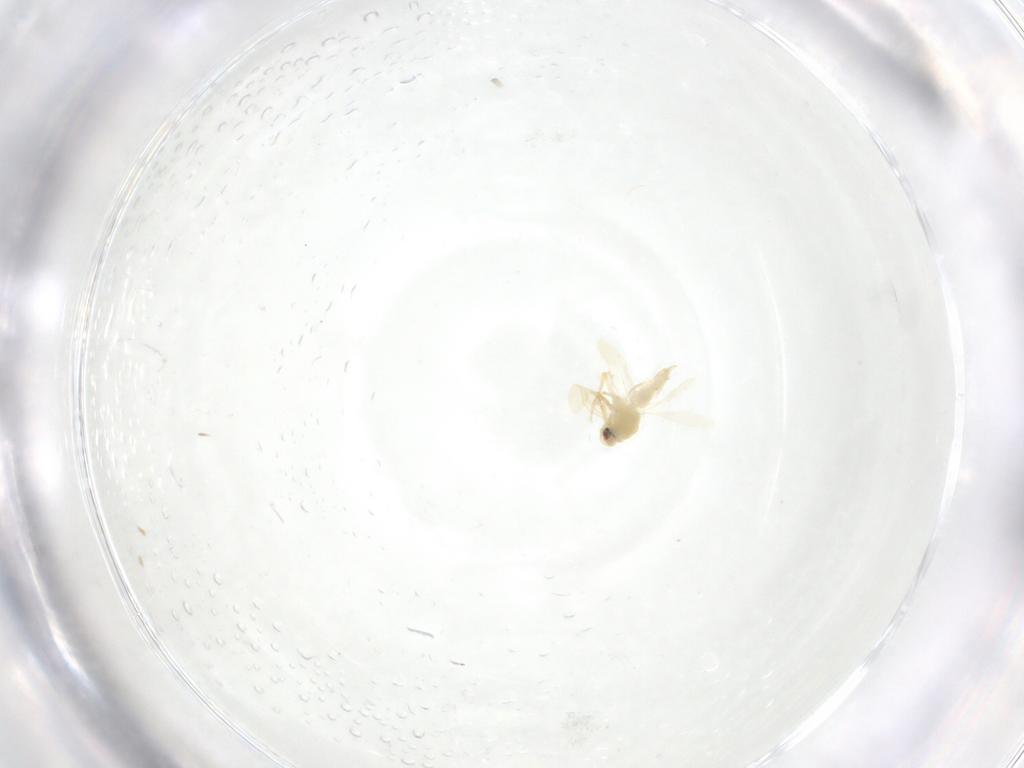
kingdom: Animalia
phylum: Arthropoda
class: Insecta
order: Hemiptera
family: Aleyrodidae
